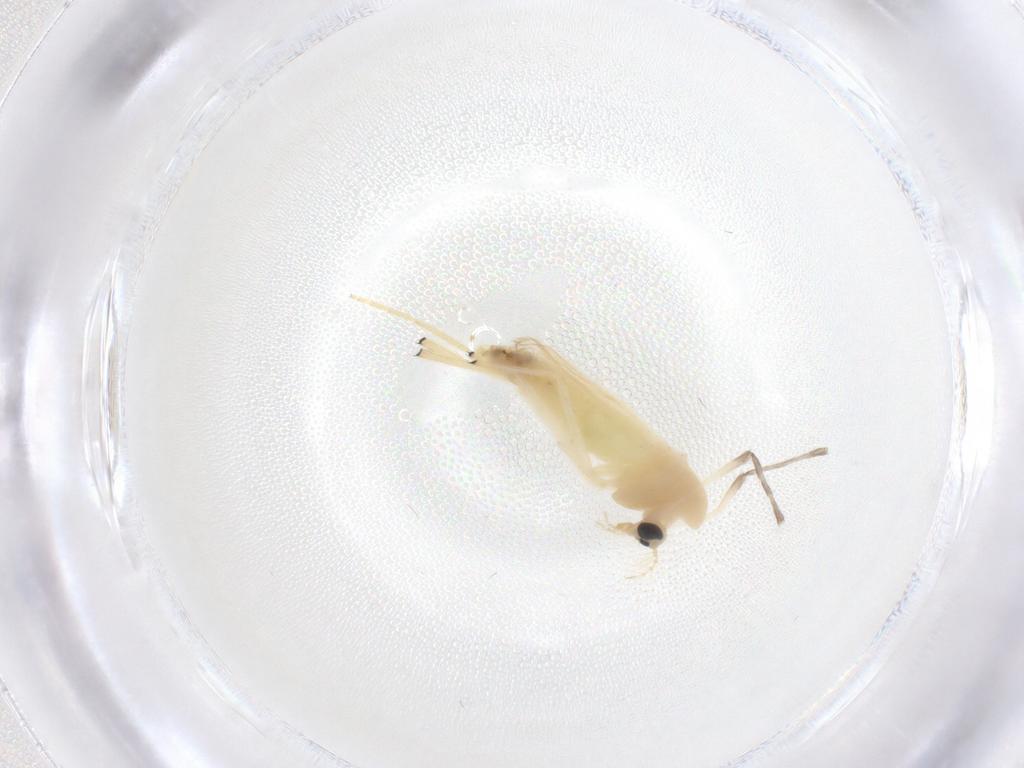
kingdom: Animalia
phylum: Arthropoda
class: Insecta
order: Diptera
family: Chironomidae
